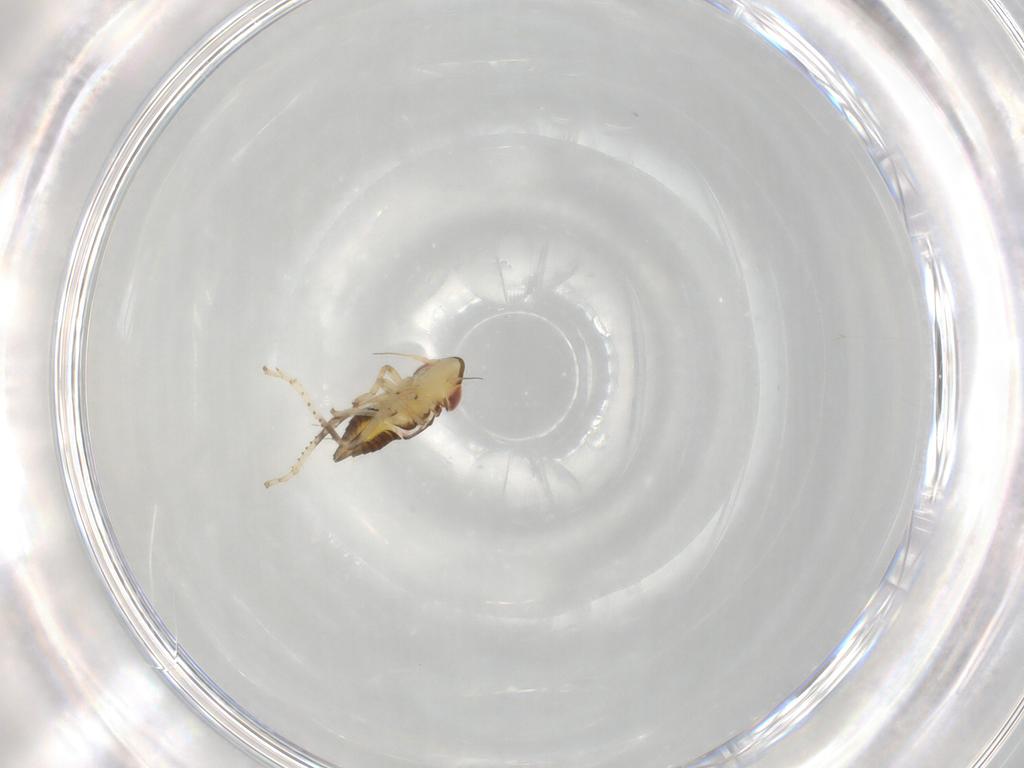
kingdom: Animalia
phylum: Arthropoda
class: Insecta
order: Hemiptera
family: Cicadellidae
